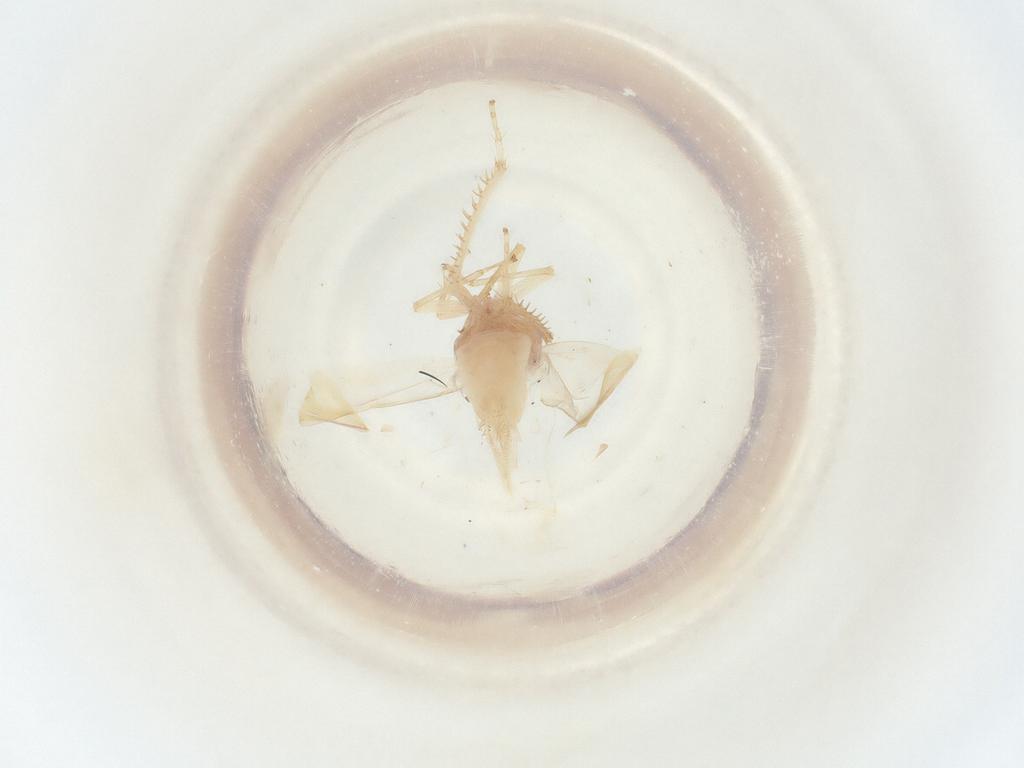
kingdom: Animalia
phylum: Arthropoda
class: Insecta
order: Hemiptera
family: Cicadellidae
